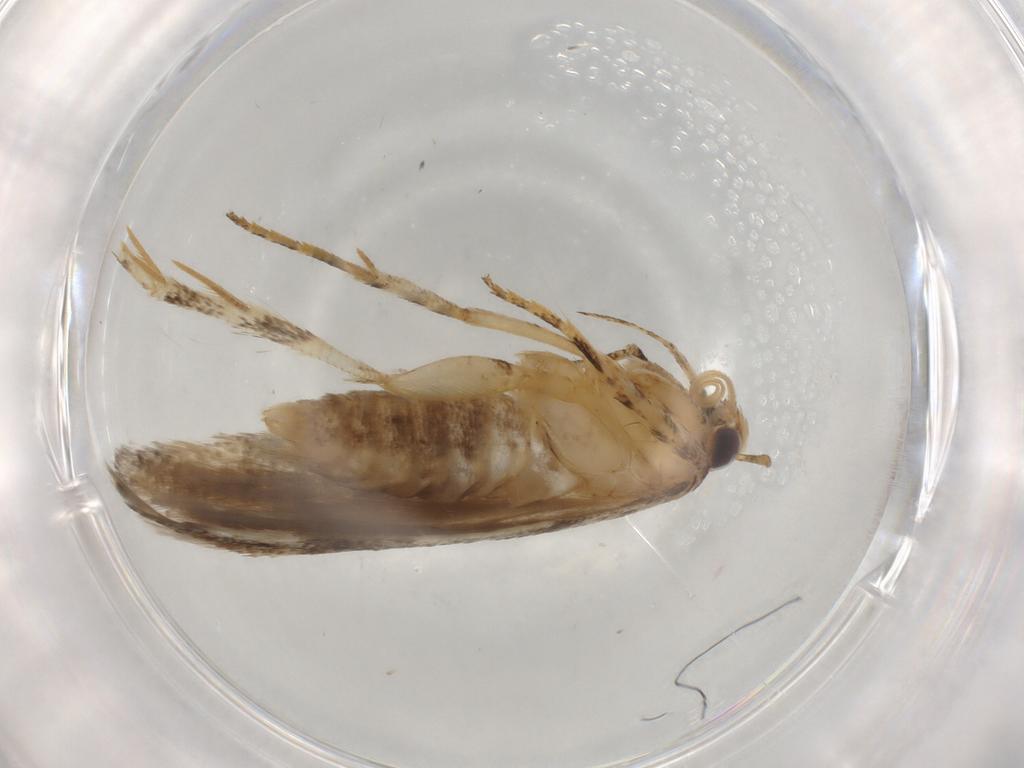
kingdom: Animalia
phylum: Arthropoda
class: Insecta
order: Lepidoptera
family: Gelechiidae
